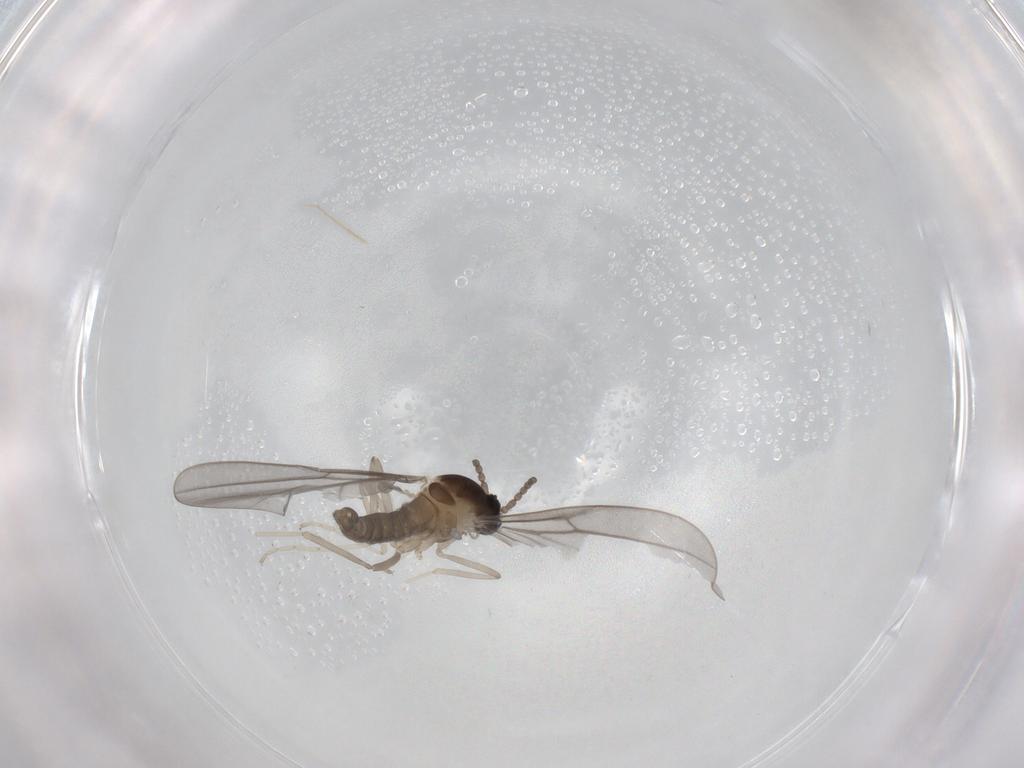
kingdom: Animalia
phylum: Arthropoda
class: Insecta
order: Diptera
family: Cecidomyiidae
